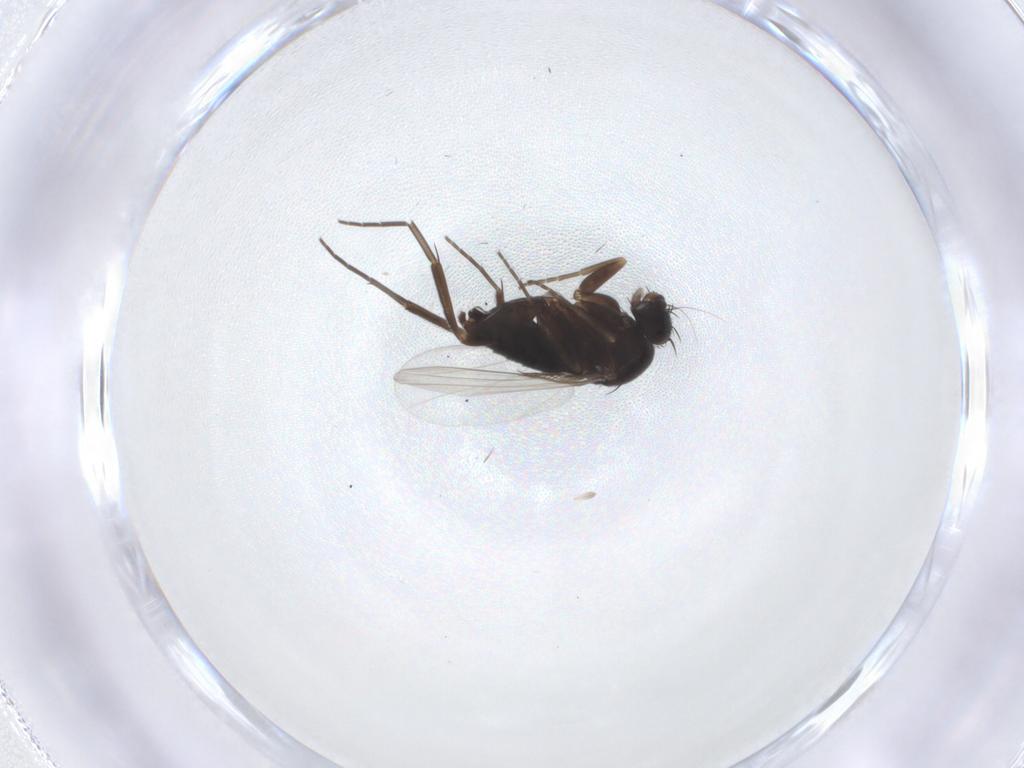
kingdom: Animalia
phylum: Arthropoda
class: Insecta
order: Diptera
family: Phoridae
